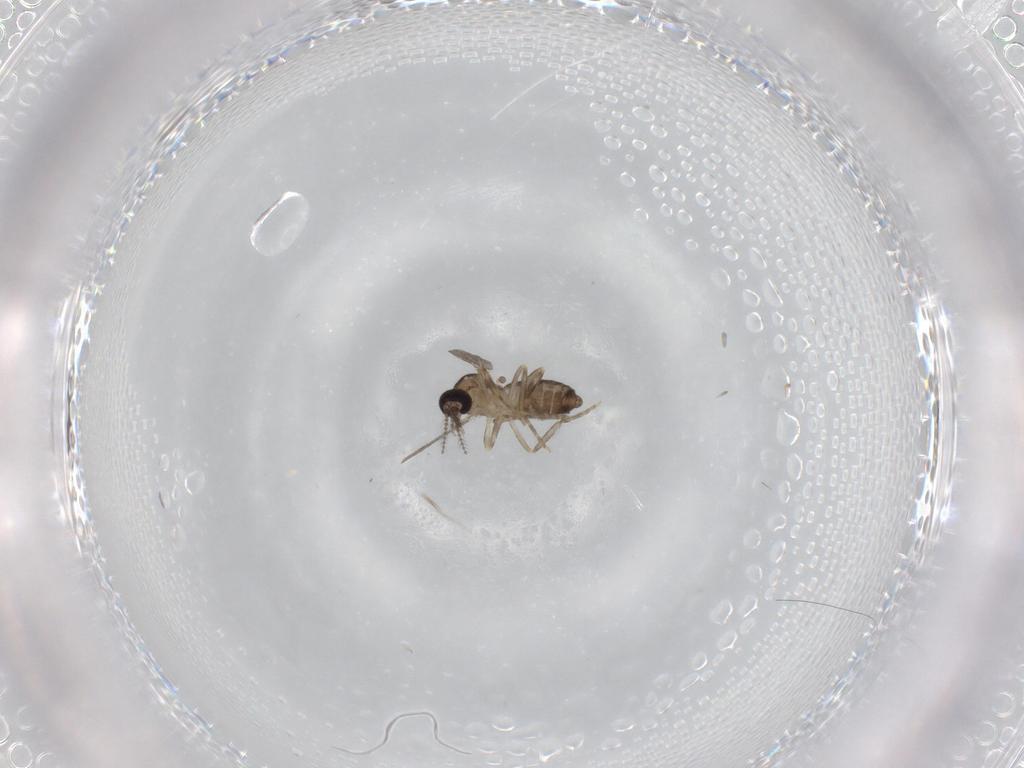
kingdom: Animalia
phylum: Arthropoda
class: Insecta
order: Diptera
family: Ceratopogonidae
